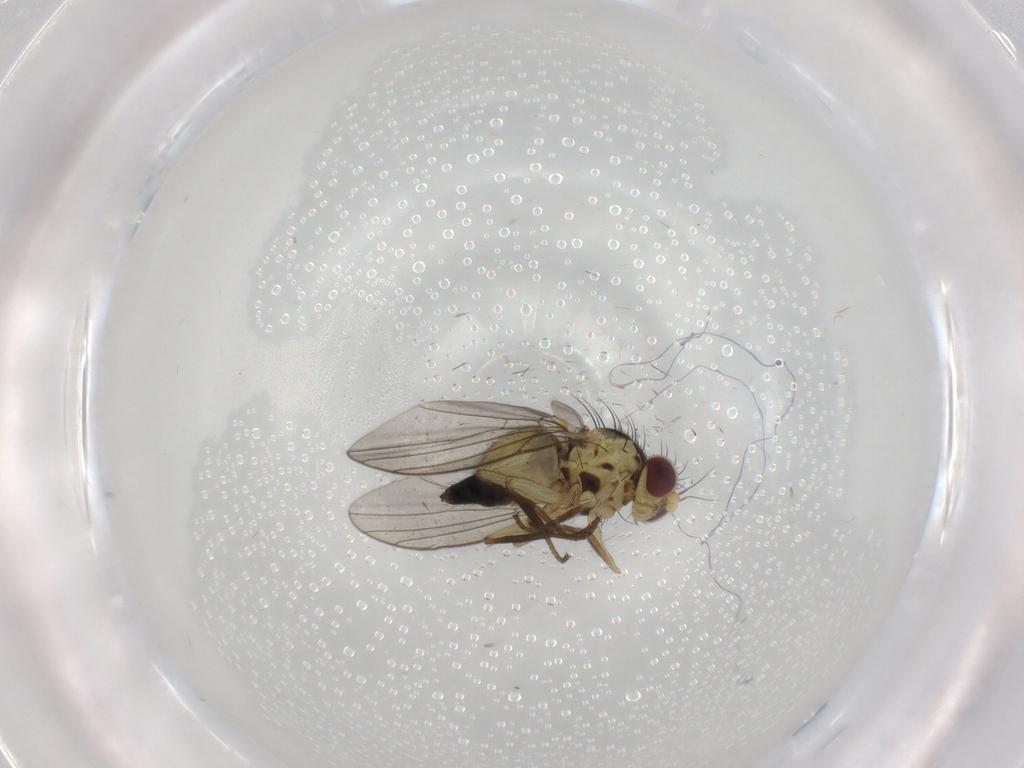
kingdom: Animalia
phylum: Arthropoda
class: Insecta
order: Diptera
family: Agromyzidae
